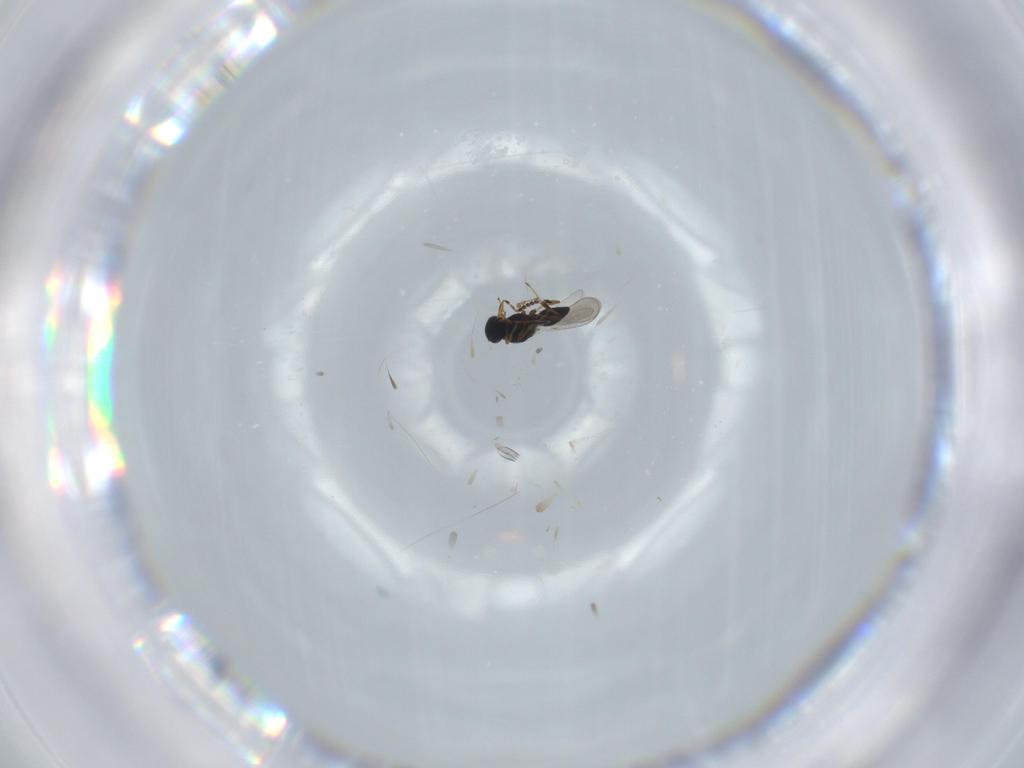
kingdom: Animalia
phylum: Arthropoda
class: Insecta
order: Hymenoptera
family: Platygastridae
